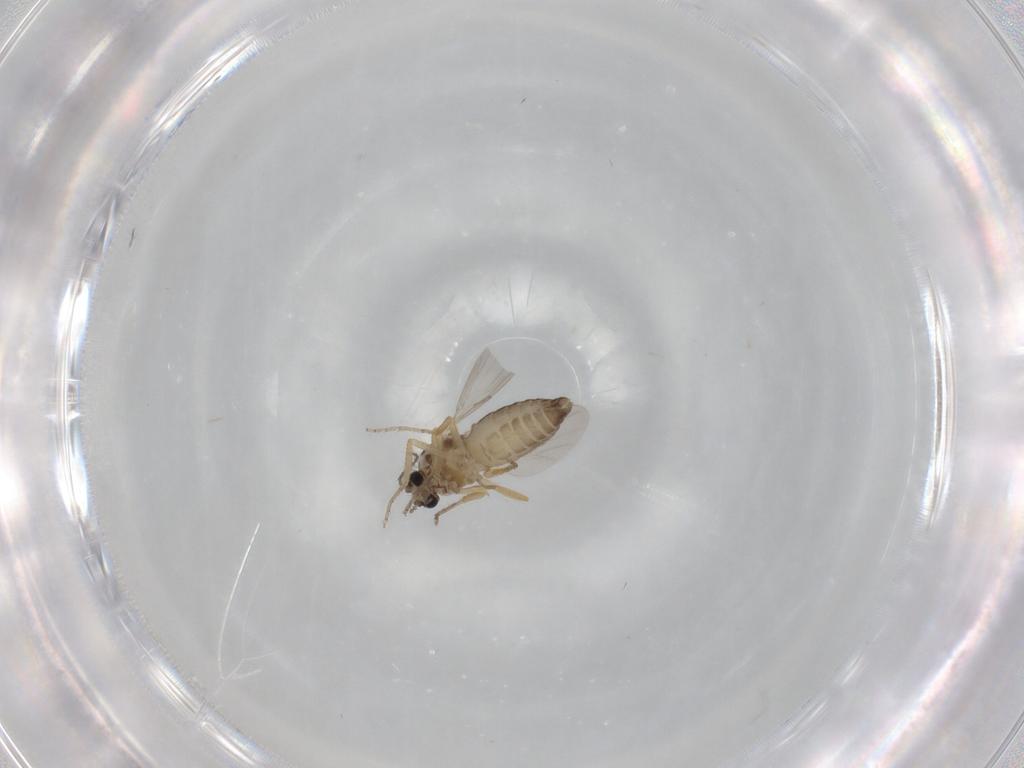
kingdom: Animalia
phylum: Arthropoda
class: Insecta
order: Diptera
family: Ceratopogonidae
